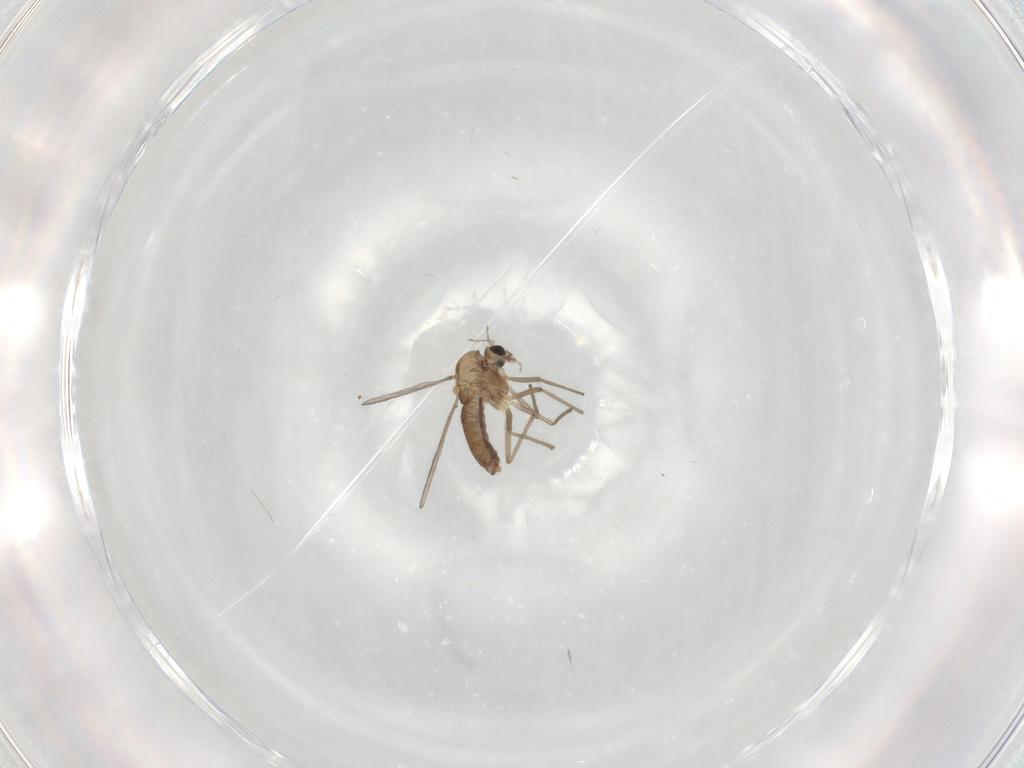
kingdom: Animalia
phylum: Arthropoda
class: Insecta
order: Diptera
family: Chironomidae
